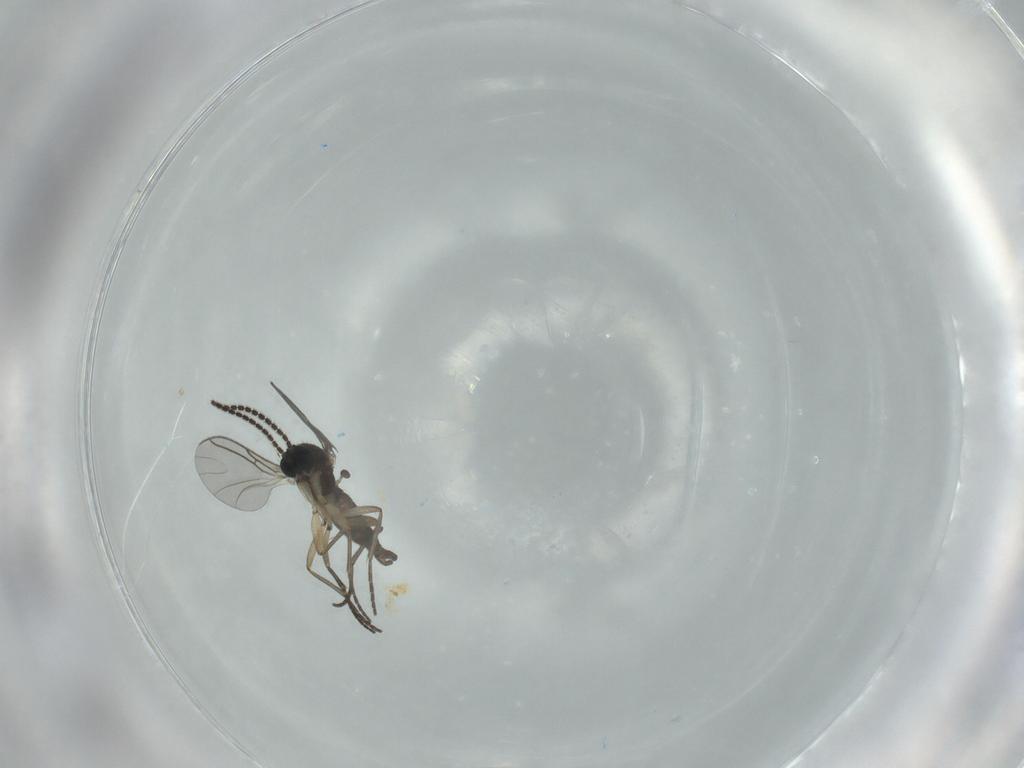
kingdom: Animalia
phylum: Arthropoda
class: Insecta
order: Diptera
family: Sciaridae
